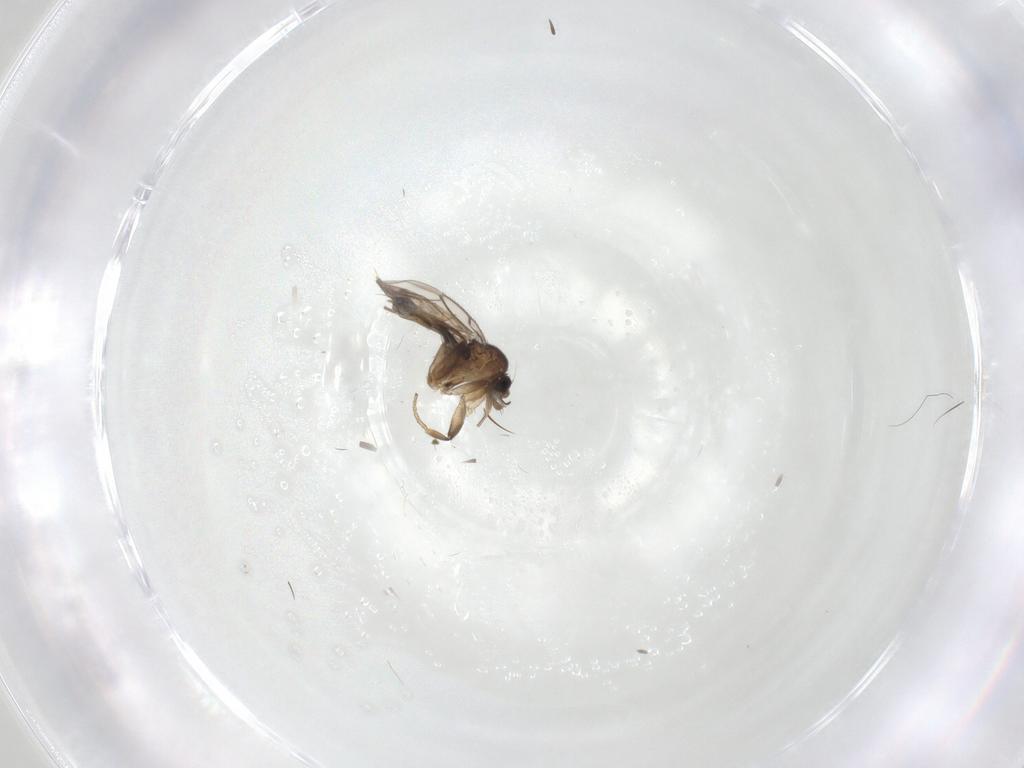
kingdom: Animalia
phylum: Arthropoda
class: Insecta
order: Diptera
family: Phoridae
